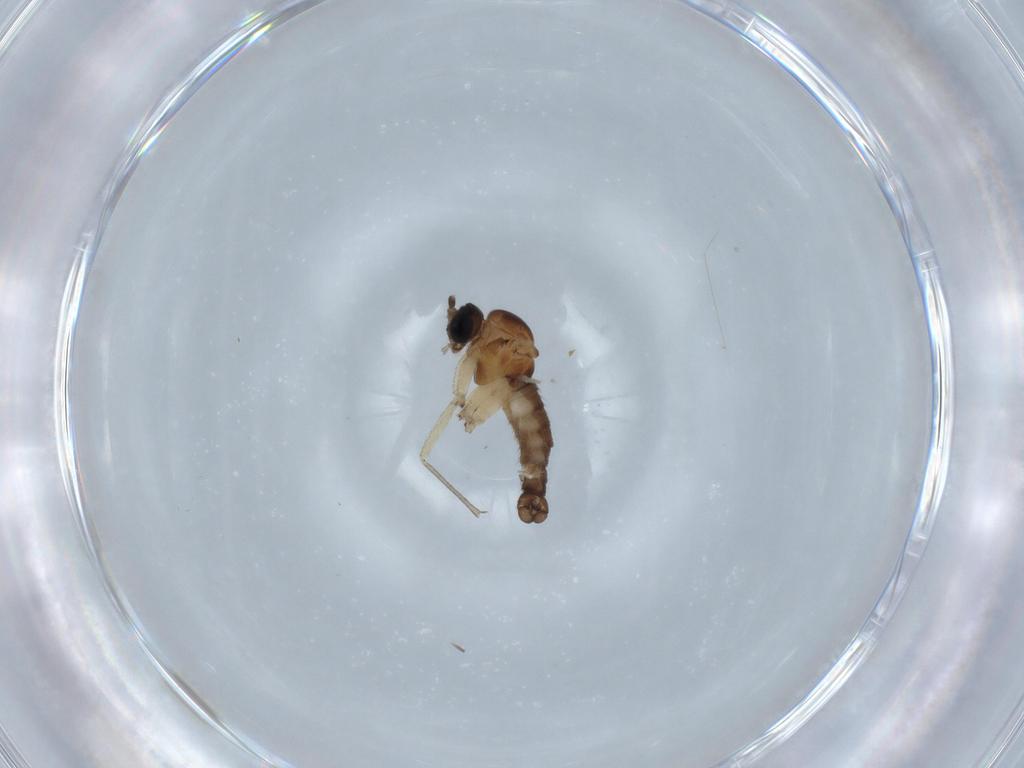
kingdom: Animalia
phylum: Arthropoda
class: Insecta
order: Diptera
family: Sciaridae
